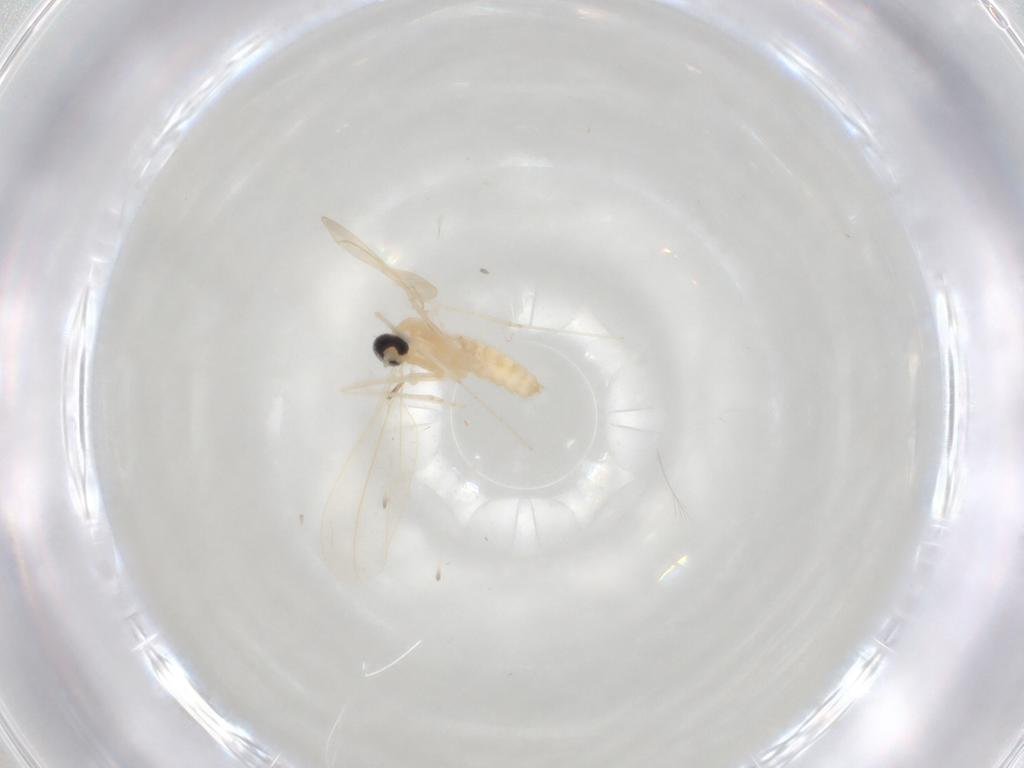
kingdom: Animalia
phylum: Arthropoda
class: Insecta
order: Diptera
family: Cecidomyiidae
